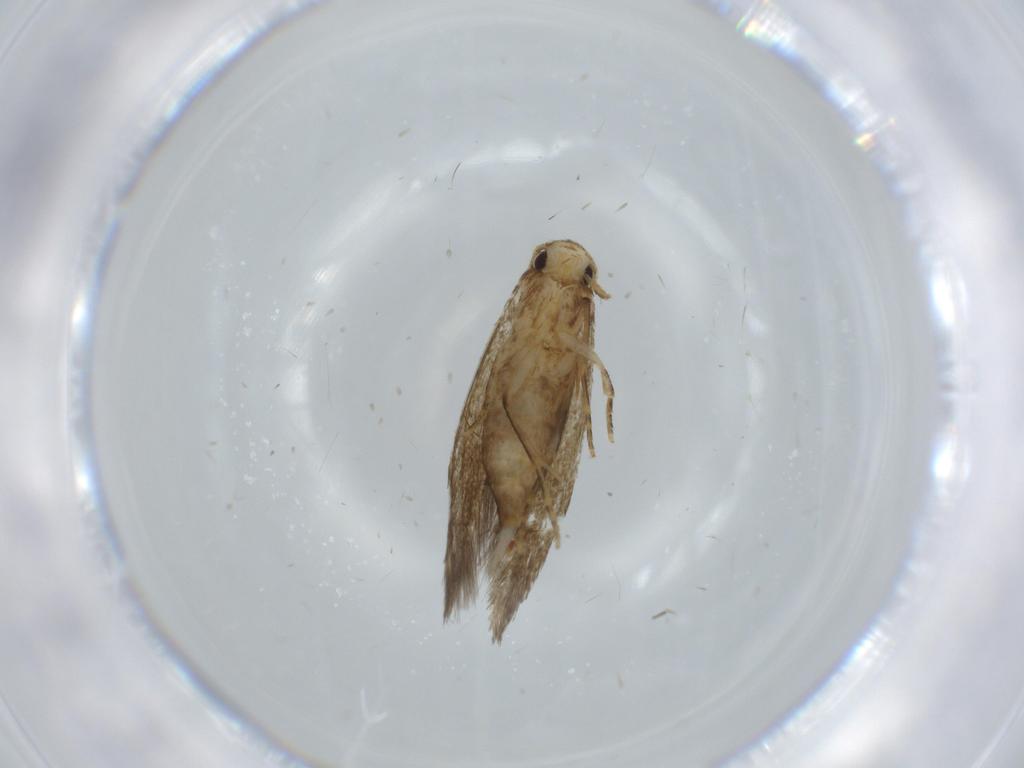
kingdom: Animalia
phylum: Arthropoda
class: Insecta
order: Lepidoptera
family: Tineidae
